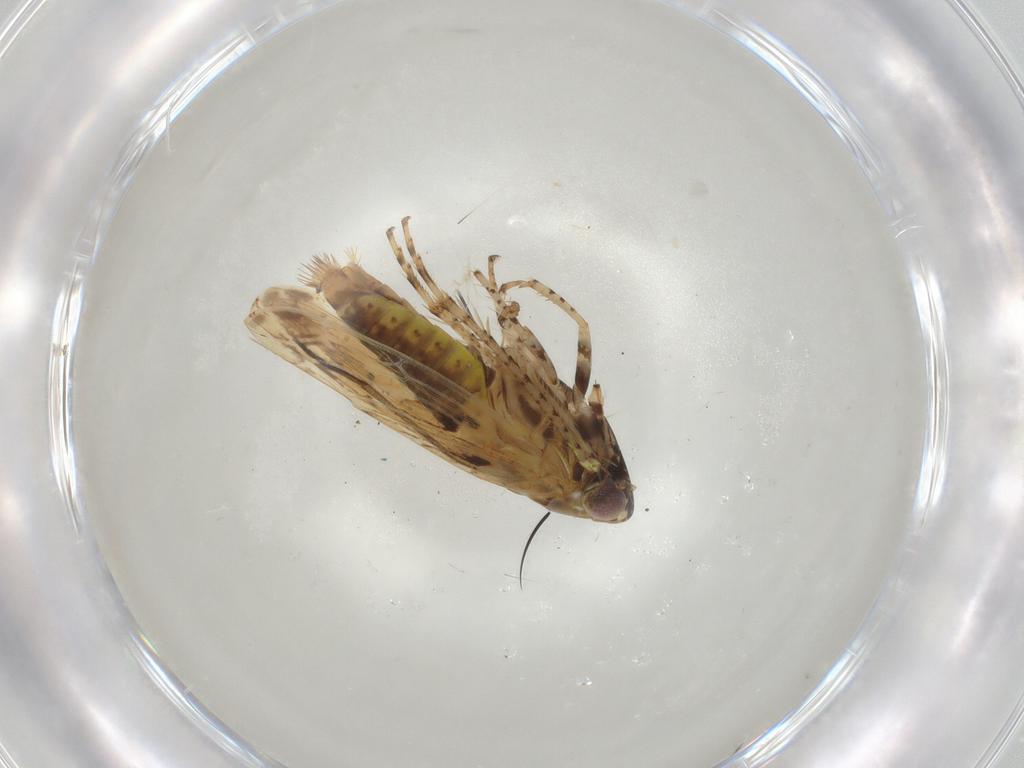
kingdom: Animalia
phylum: Arthropoda
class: Insecta
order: Hemiptera
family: Cicadellidae
